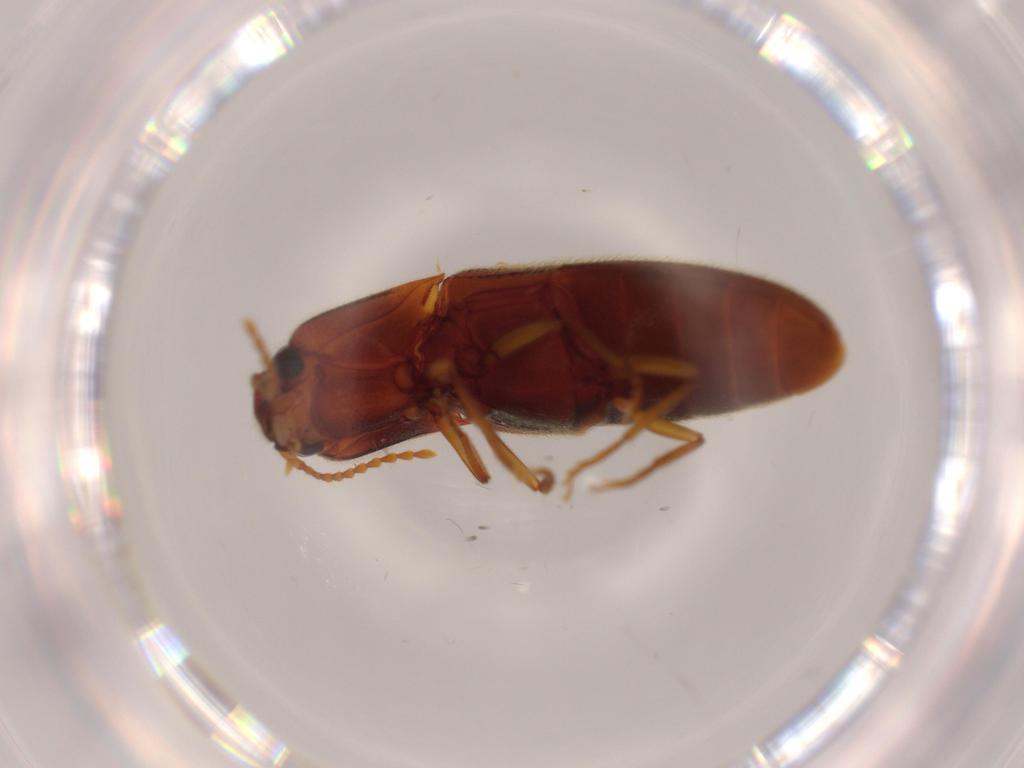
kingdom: Animalia
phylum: Arthropoda
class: Insecta
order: Coleoptera
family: Elateridae
